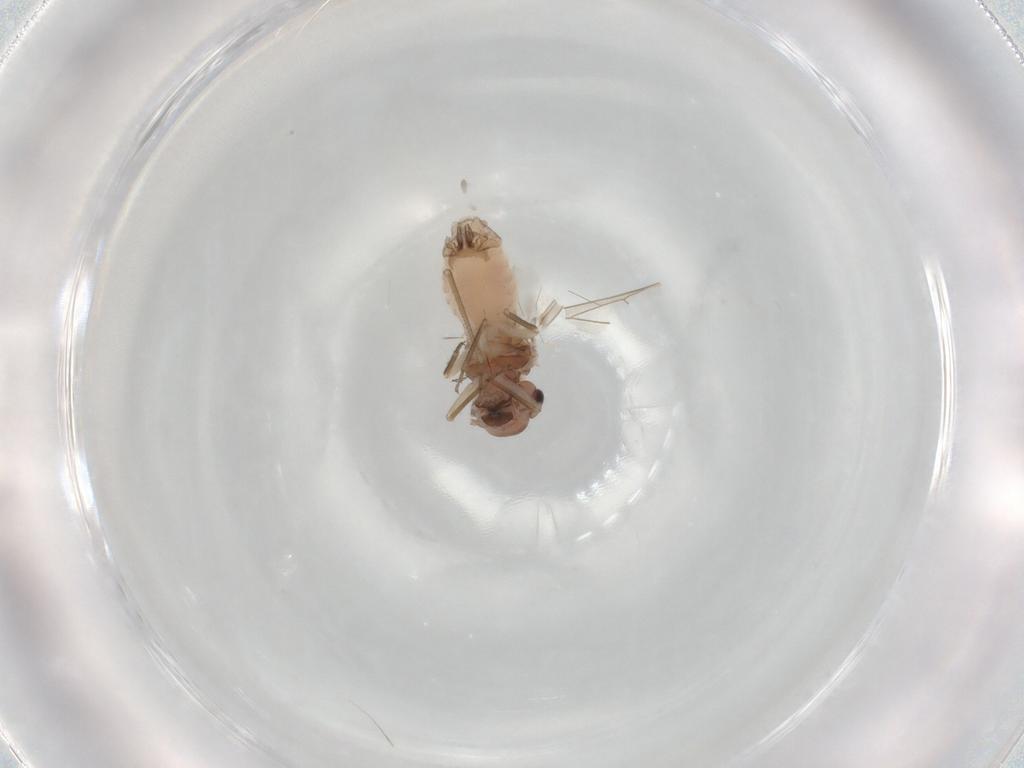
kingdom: Animalia
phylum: Arthropoda
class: Insecta
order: Psocodea
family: Peripsocidae
